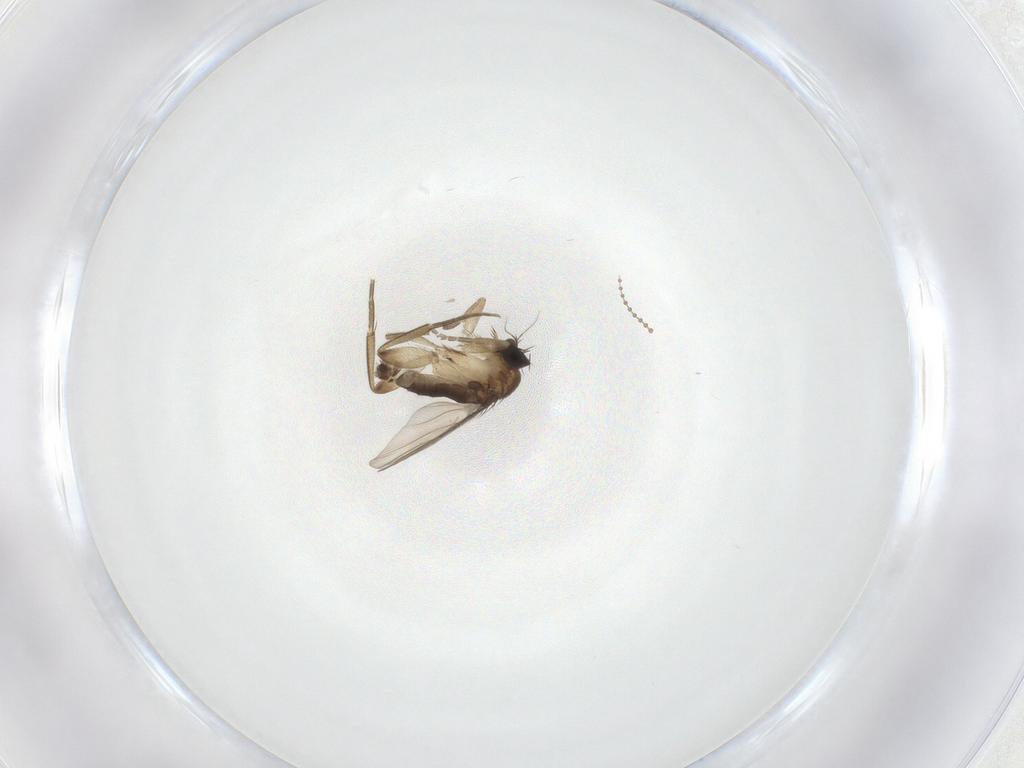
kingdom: Animalia
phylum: Arthropoda
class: Insecta
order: Diptera
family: Phoridae
